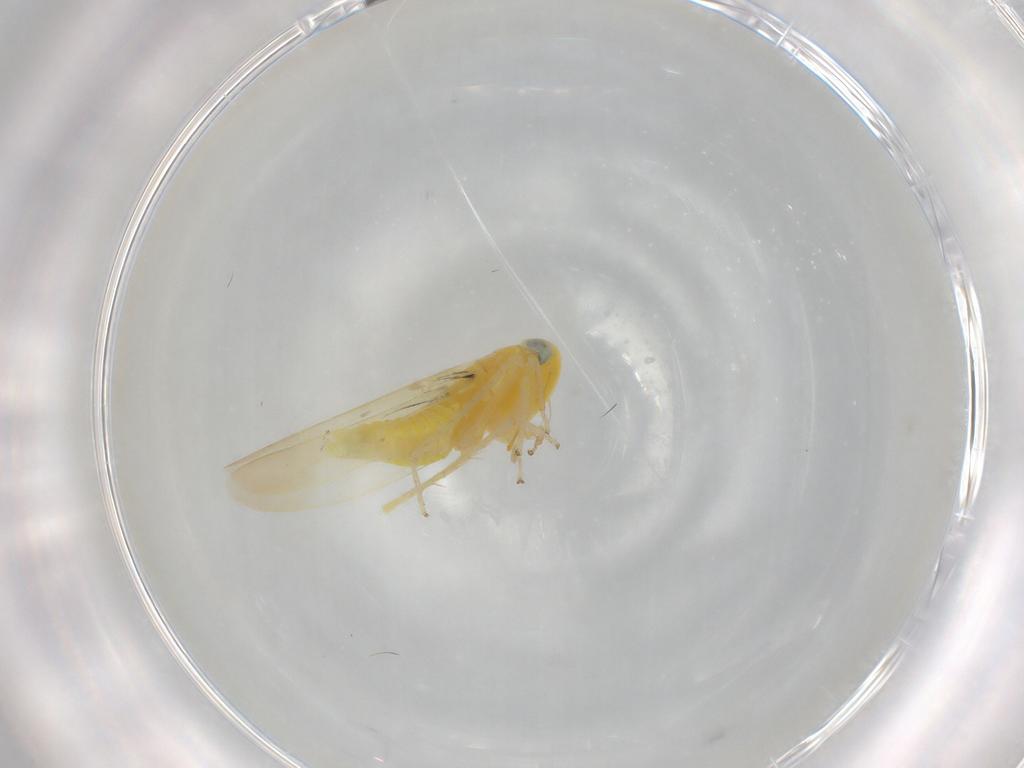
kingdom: Animalia
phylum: Arthropoda
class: Insecta
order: Hemiptera
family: Cicadellidae
